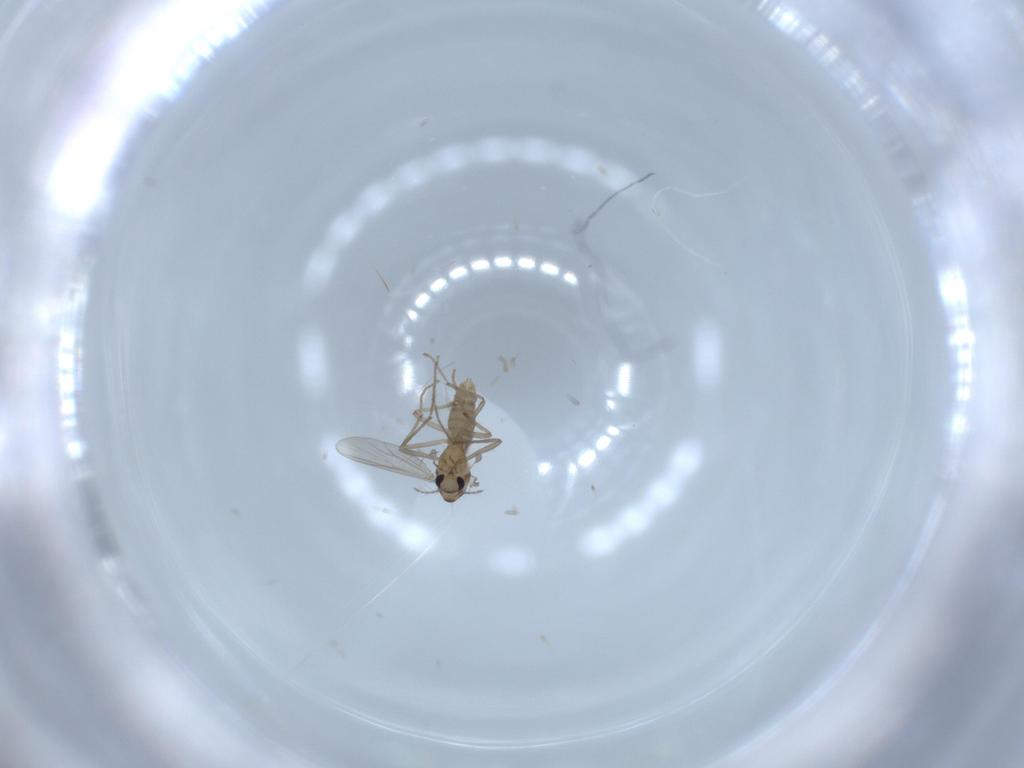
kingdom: Animalia
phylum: Arthropoda
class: Insecta
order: Diptera
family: Chironomidae
